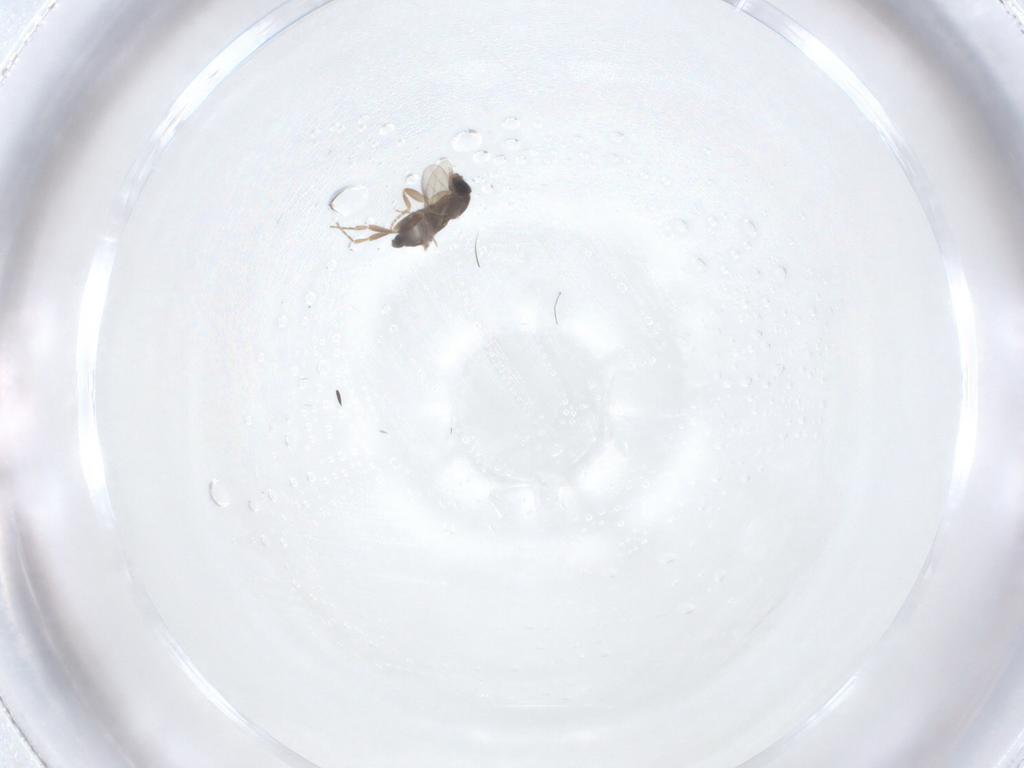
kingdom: Animalia
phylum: Arthropoda
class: Insecta
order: Diptera
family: Phoridae
